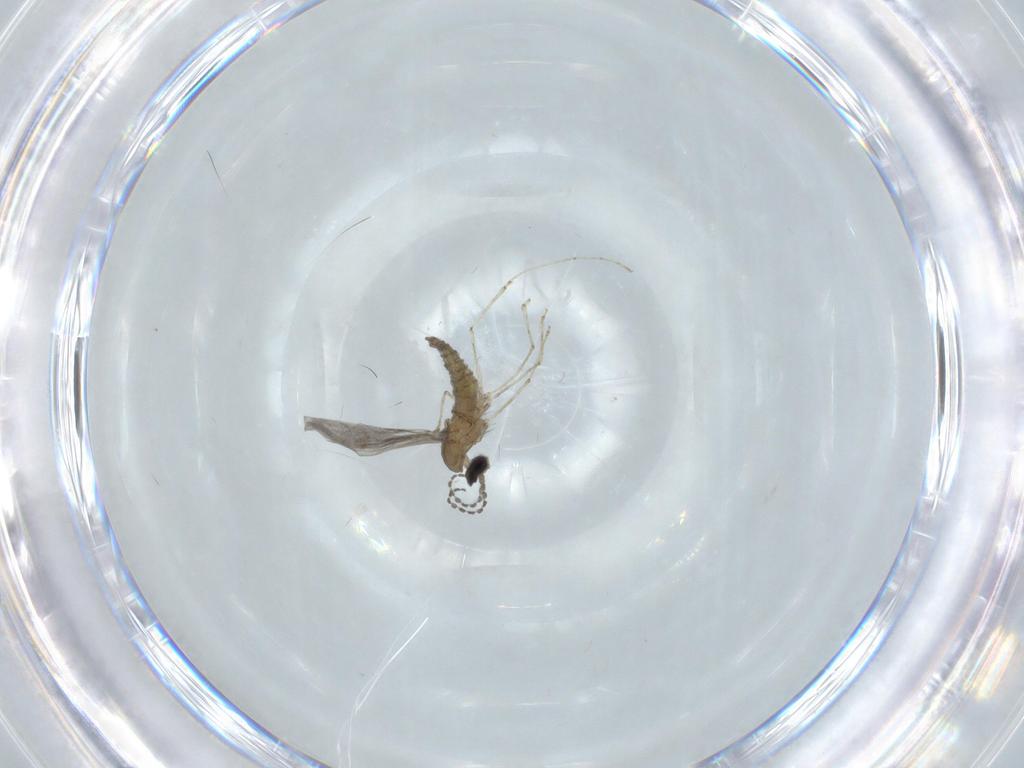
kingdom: Animalia
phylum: Arthropoda
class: Insecta
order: Diptera
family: Cecidomyiidae
